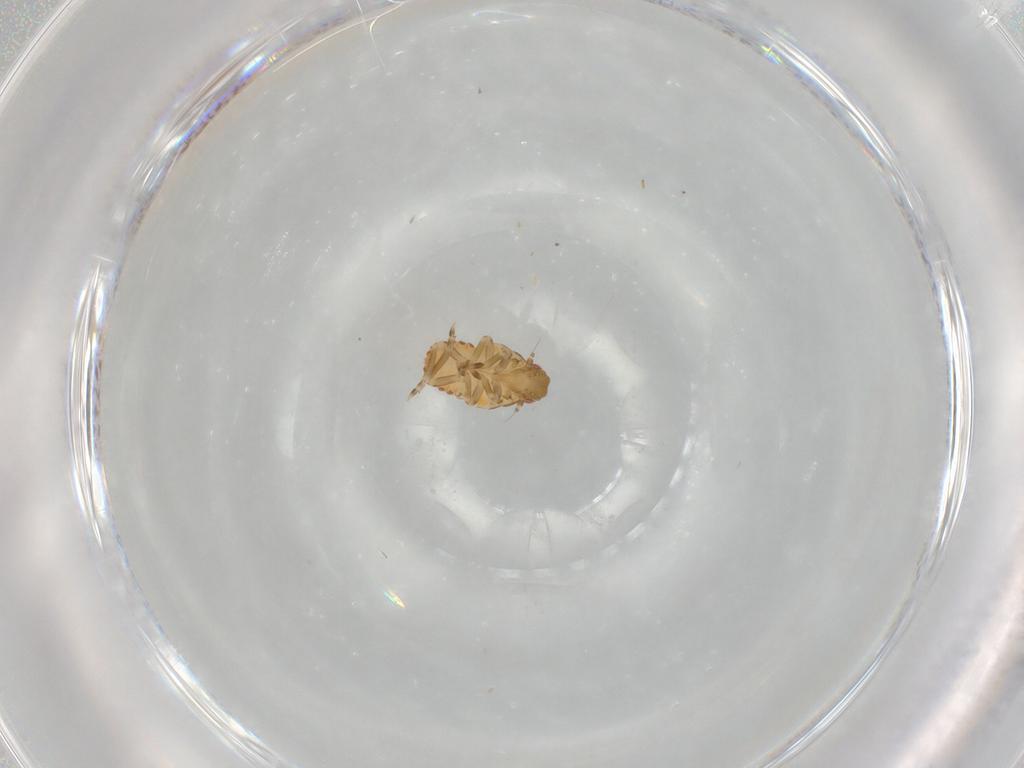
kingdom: Animalia
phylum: Arthropoda
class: Insecta
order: Hemiptera
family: Flatidae
